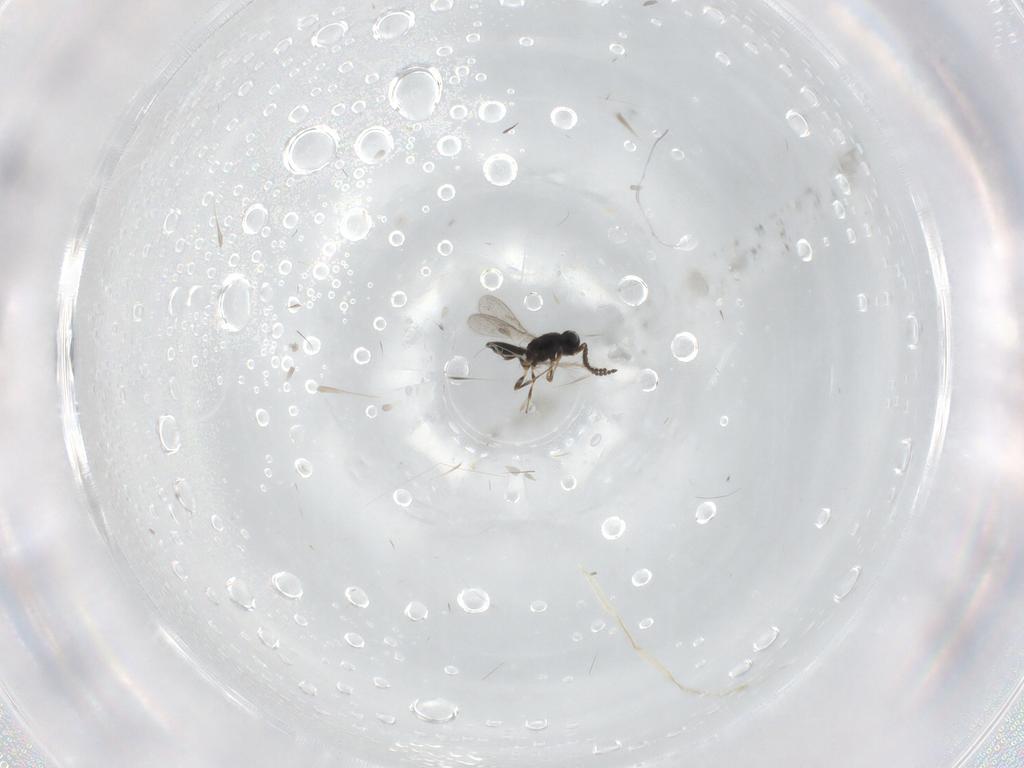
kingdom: Animalia
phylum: Arthropoda
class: Insecta
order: Hymenoptera
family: Scelionidae
